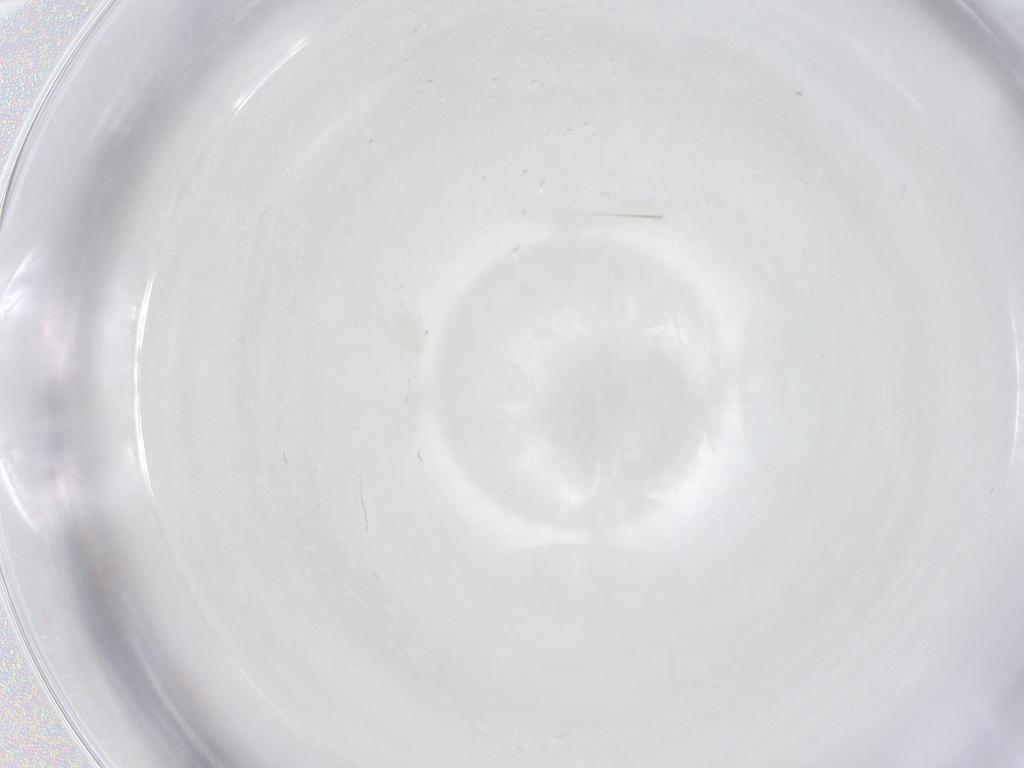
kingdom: Animalia
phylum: Arthropoda
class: Arachnida
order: Trombidiformes
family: Anystidae
